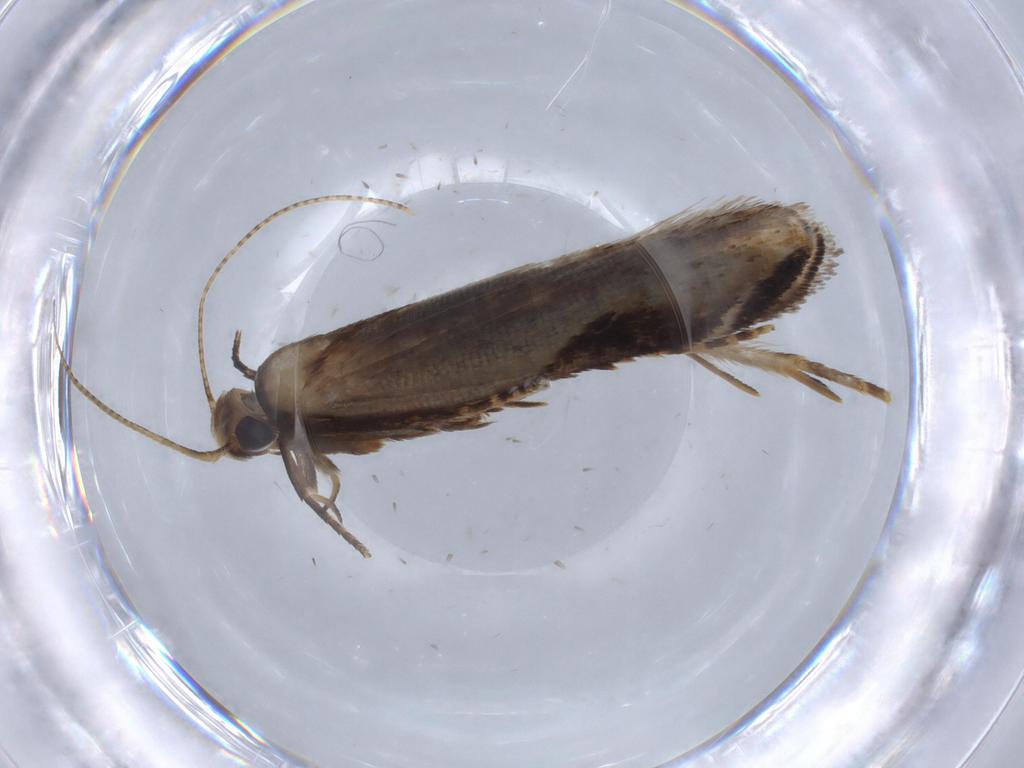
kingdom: Animalia
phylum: Arthropoda
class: Insecta
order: Lepidoptera
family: Gelechiidae
